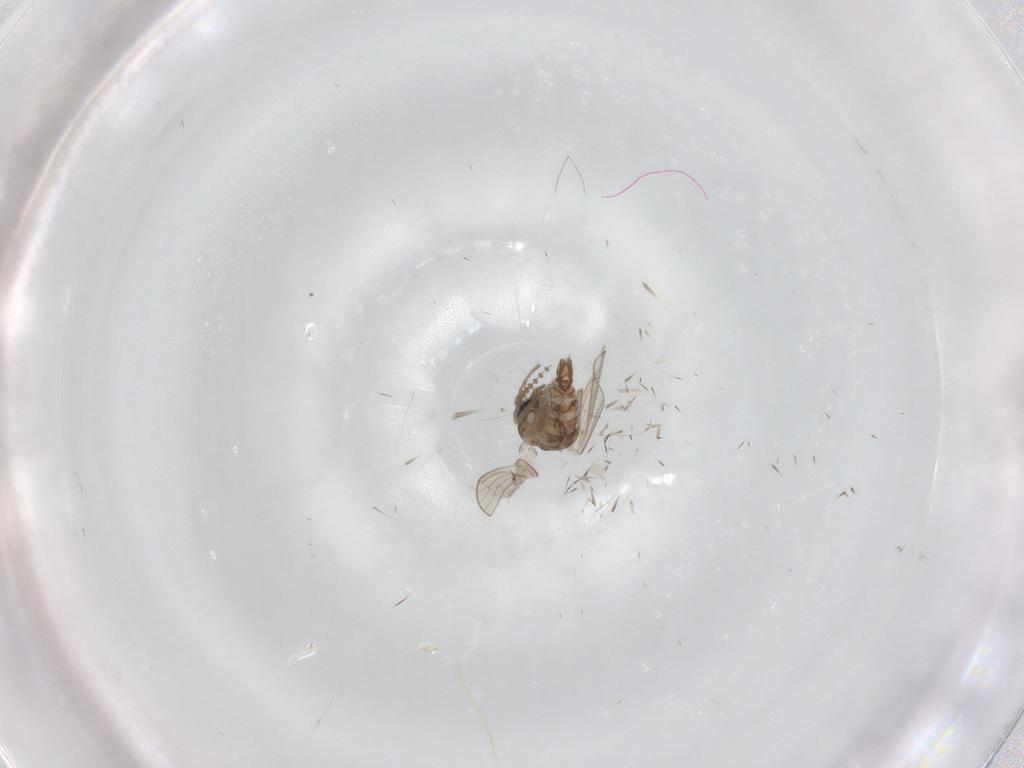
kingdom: Animalia
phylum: Arthropoda
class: Insecta
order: Diptera
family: Psychodidae
